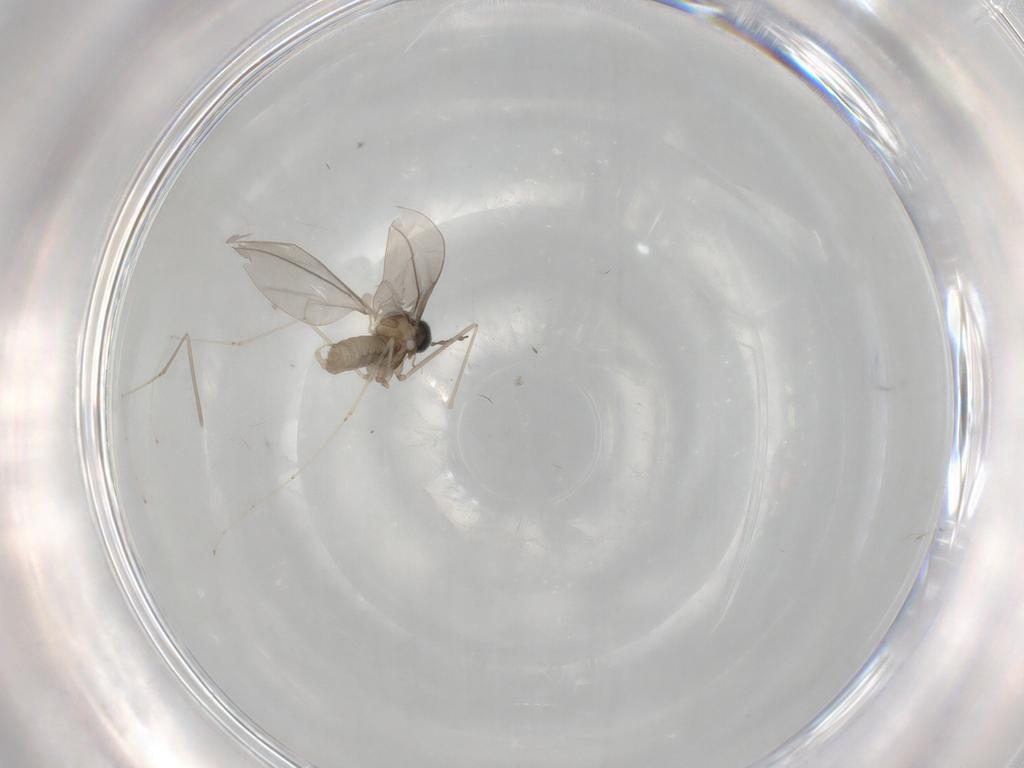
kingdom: Animalia
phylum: Arthropoda
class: Insecta
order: Diptera
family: Cecidomyiidae
